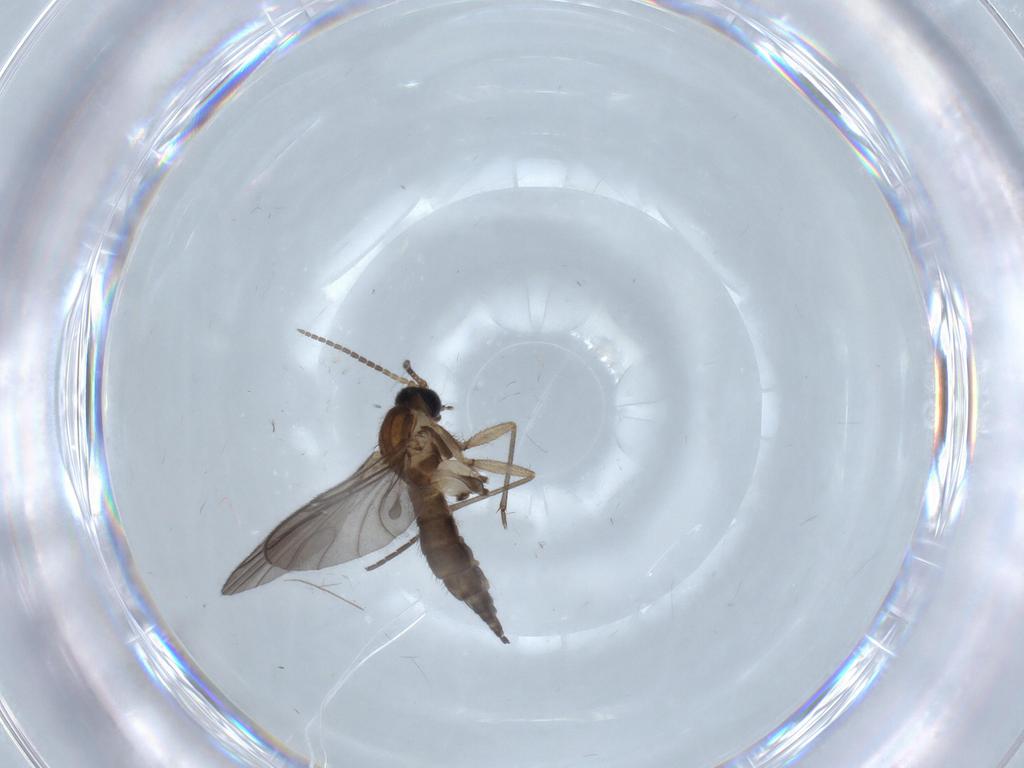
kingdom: Animalia
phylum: Arthropoda
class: Insecta
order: Diptera
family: Sciaridae
